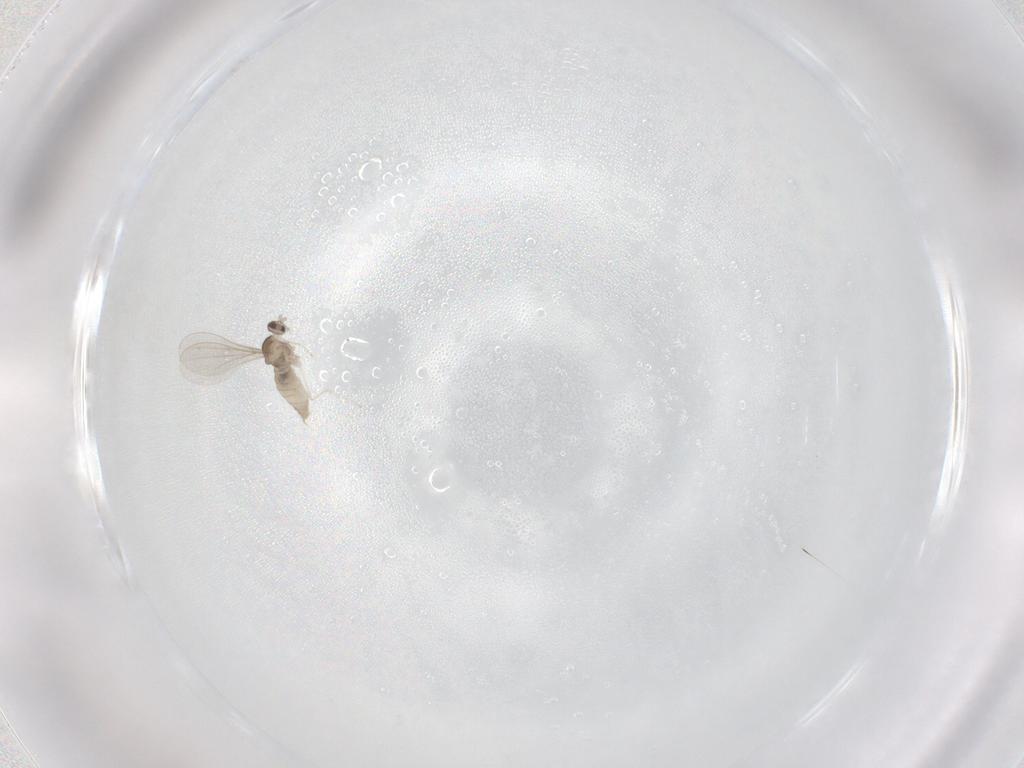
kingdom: Animalia
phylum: Arthropoda
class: Insecta
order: Diptera
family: Cecidomyiidae
